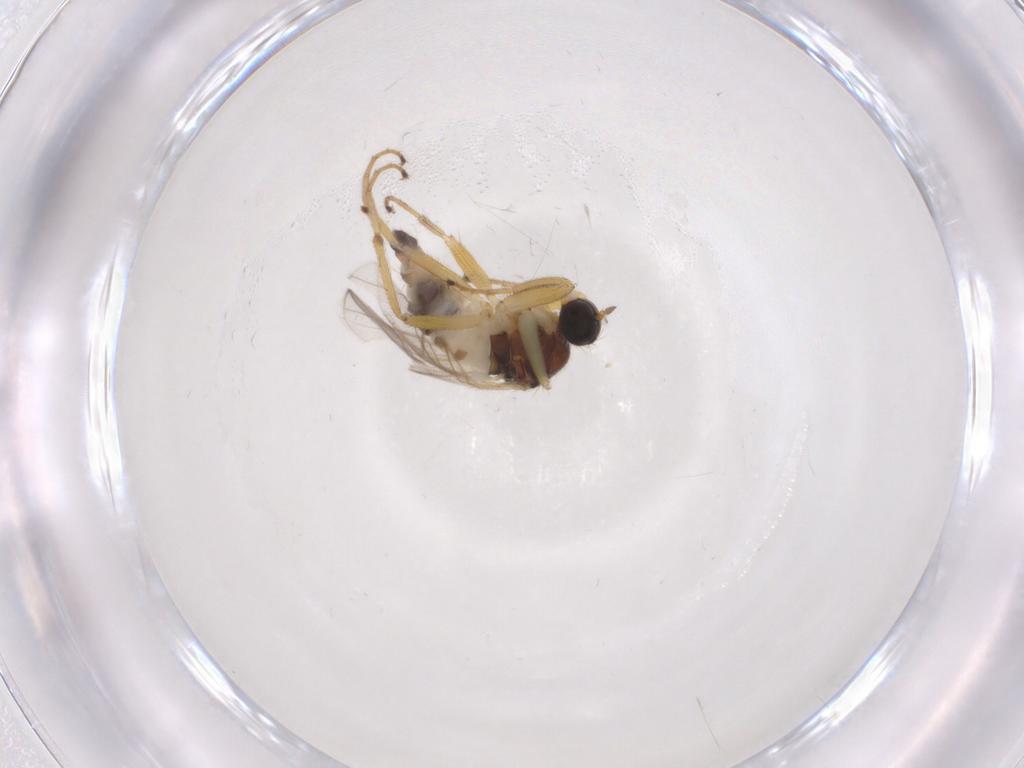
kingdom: Animalia
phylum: Arthropoda
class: Insecta
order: Diptera
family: Hybotidae
